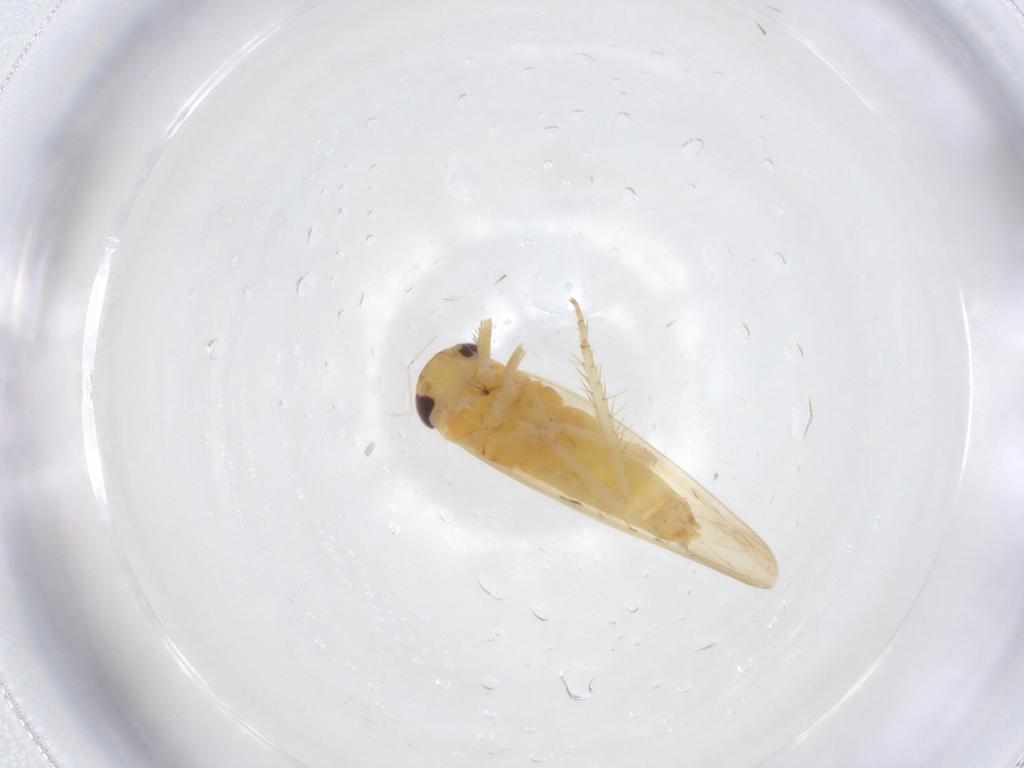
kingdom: Animalia
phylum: Arthropoda
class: Insecta
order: Hemiptera
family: Cicadellidae
